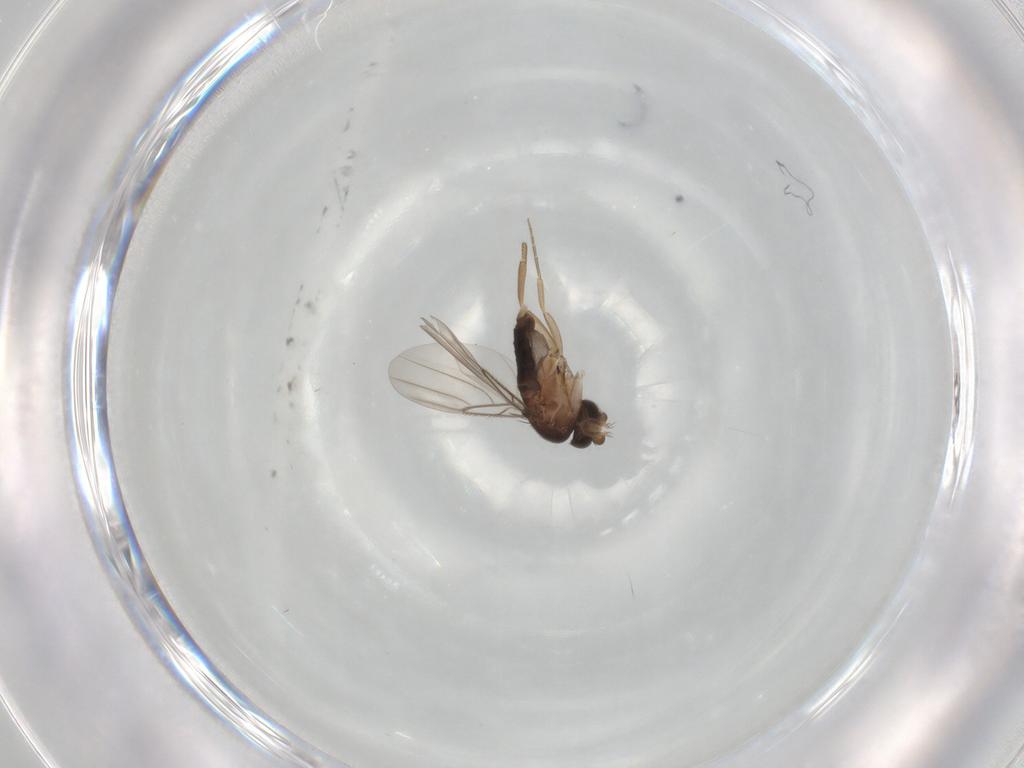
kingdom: Animalia
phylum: Arthropoda
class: Insecta
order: Diptera
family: Phoridae
